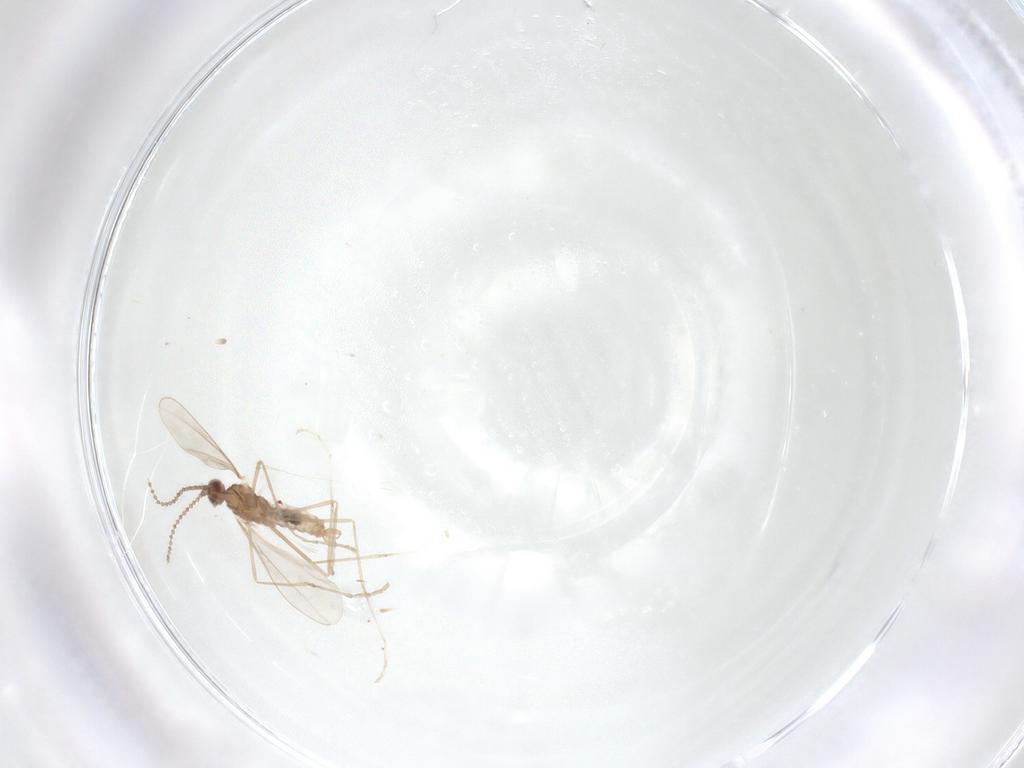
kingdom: Animalia
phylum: Arthropoda
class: Insecta
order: Diptera
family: Cecidomyiidae
